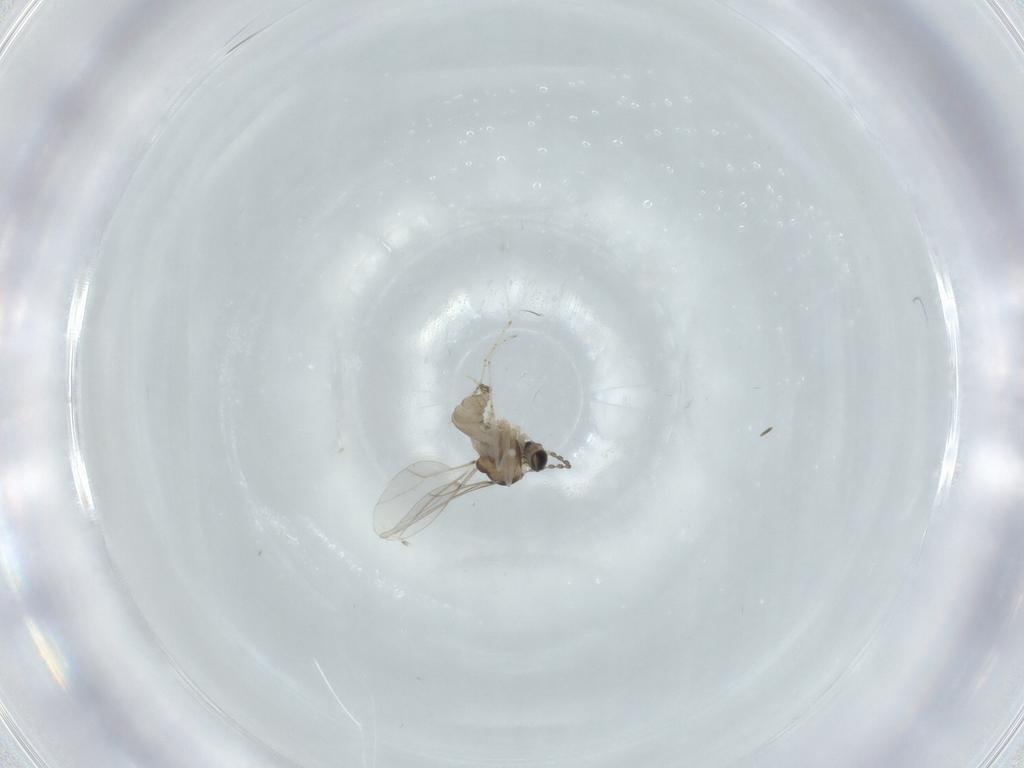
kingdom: Animalia
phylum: Arthropoda
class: Insecta
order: Diptera
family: Cecidomyiidae
